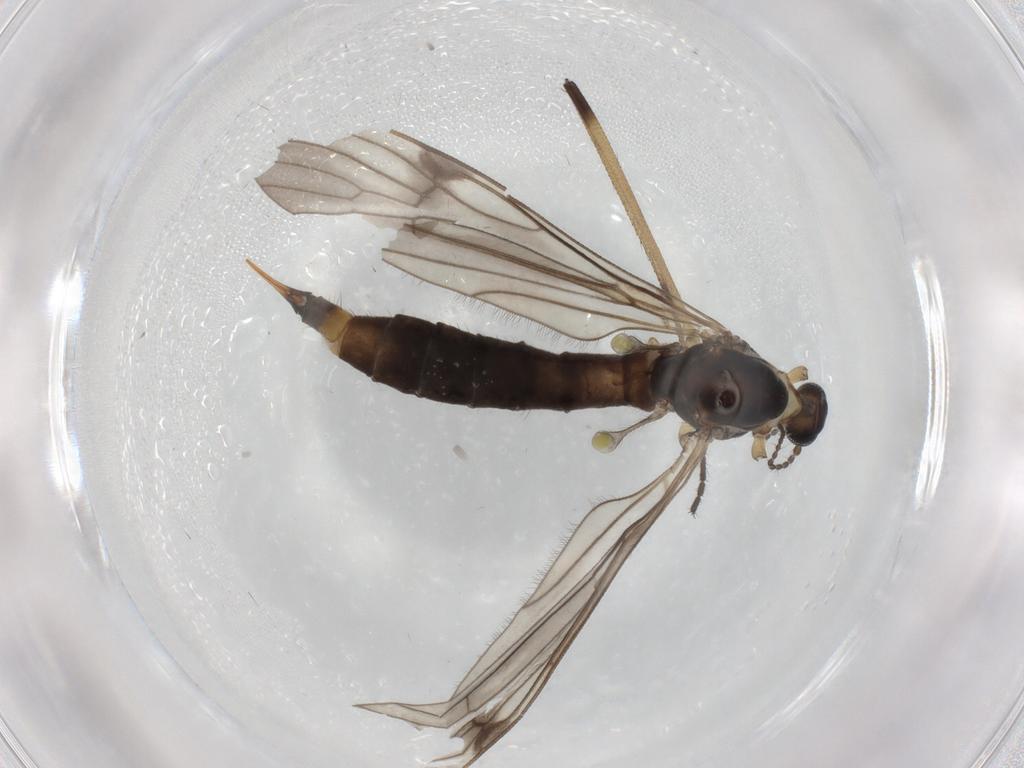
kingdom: Animalia
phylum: Arthropoda
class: Insecta
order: Diptera
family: Limoniidae
